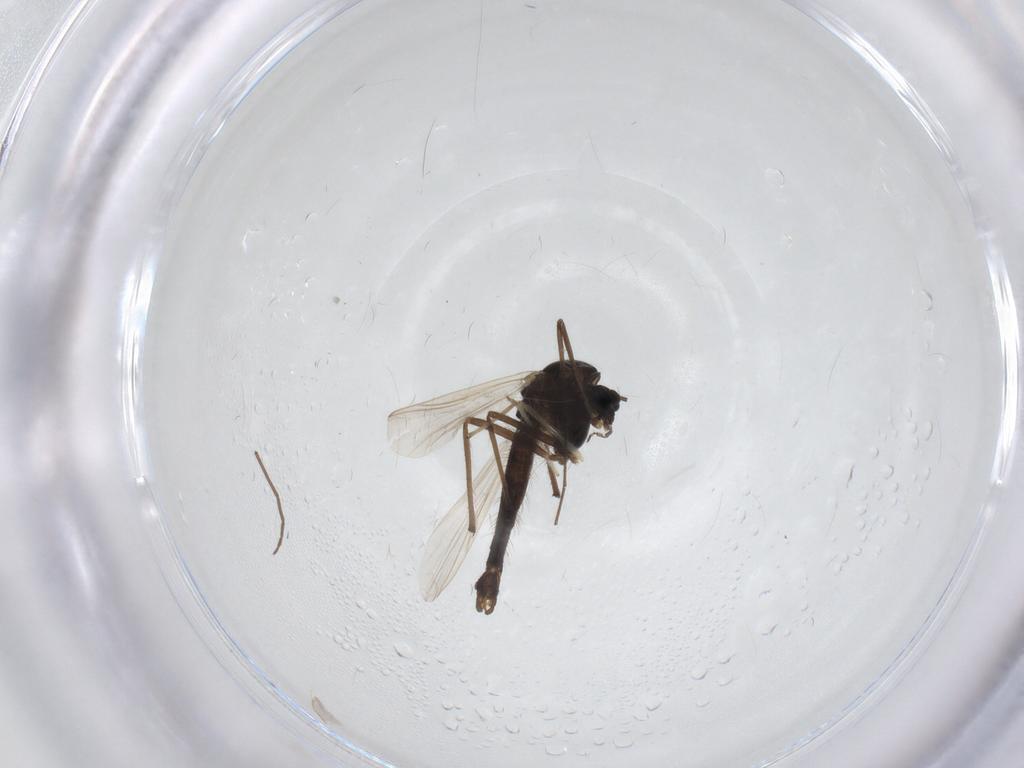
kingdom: Animalia
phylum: Arthropoda
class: Insecta
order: Diptera
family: Chironomidae
